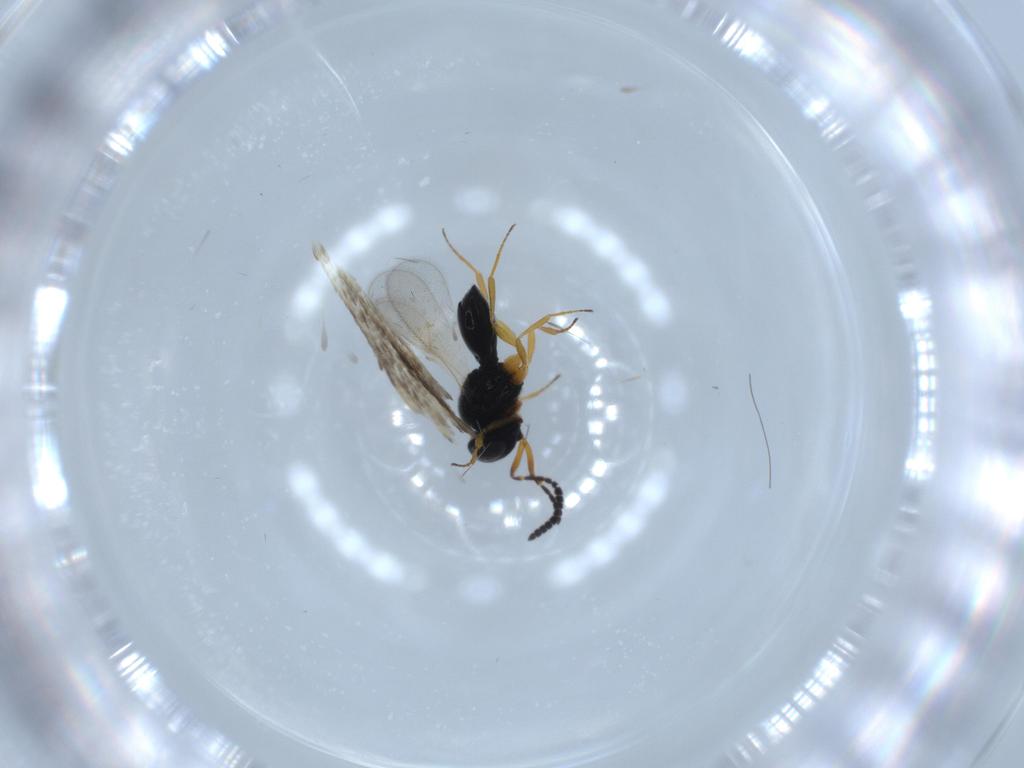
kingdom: Animalia
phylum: Arthropoda
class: Insecta
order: Hymenoptera
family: Scelionidae
